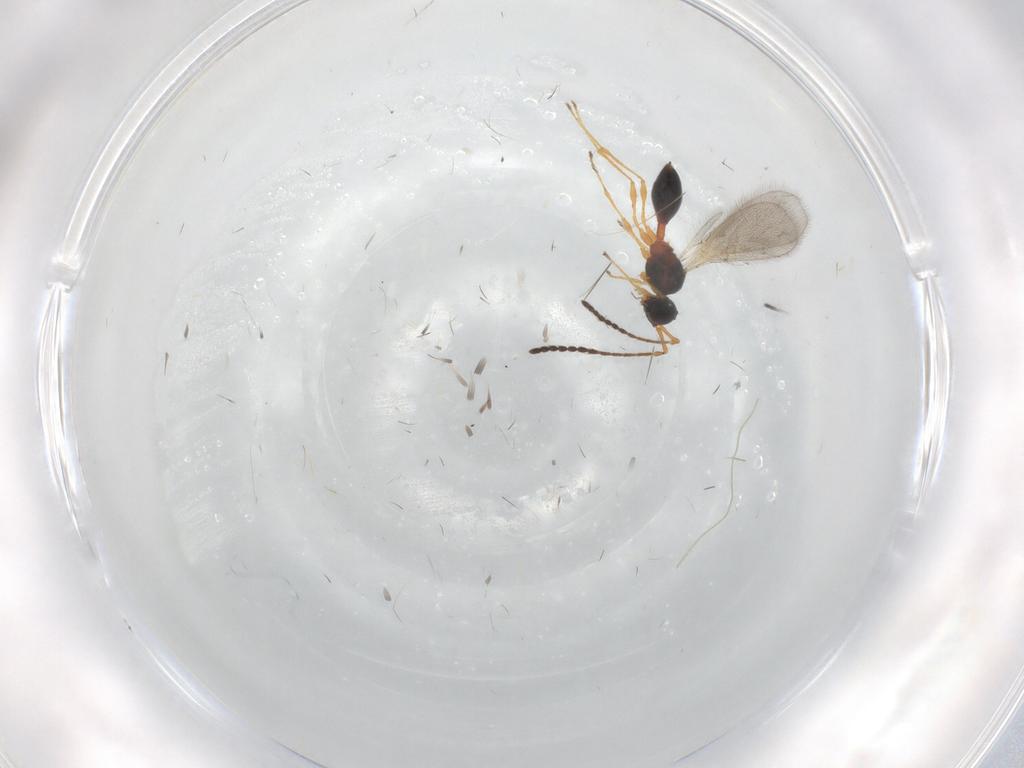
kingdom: Animalia
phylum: Arthropoda
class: Insecta
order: Hymenoptera
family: Diapriidae
